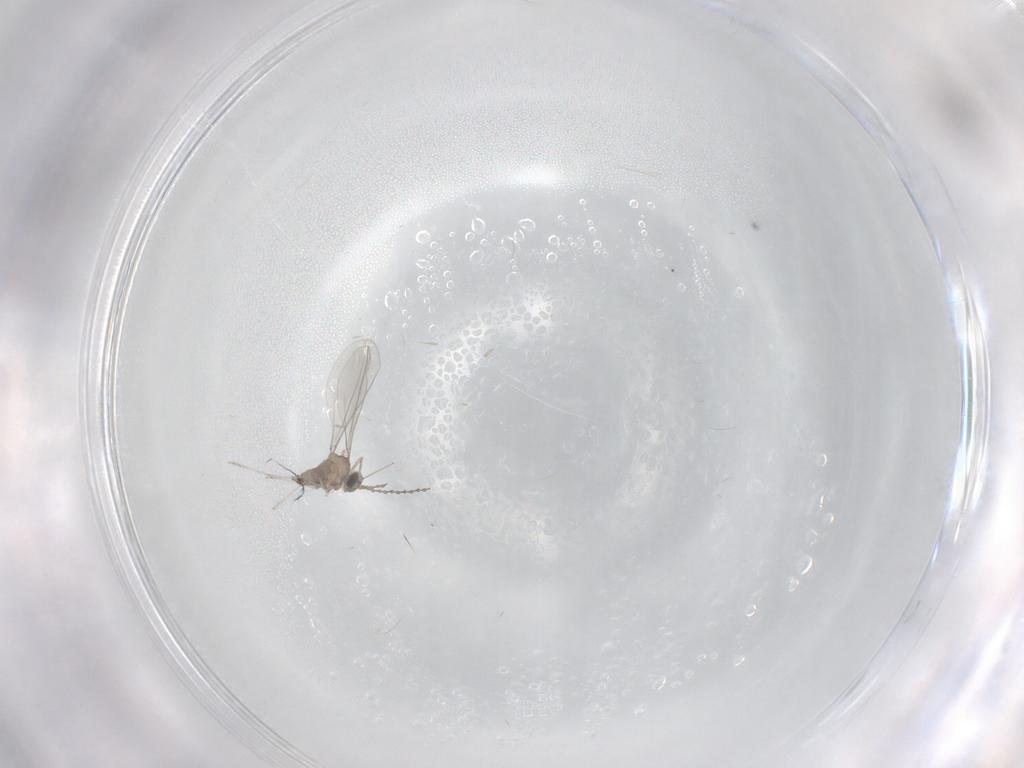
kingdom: Animalia
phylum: Arthropoda
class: Insecta
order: Diptera
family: Cecidomyiidae
